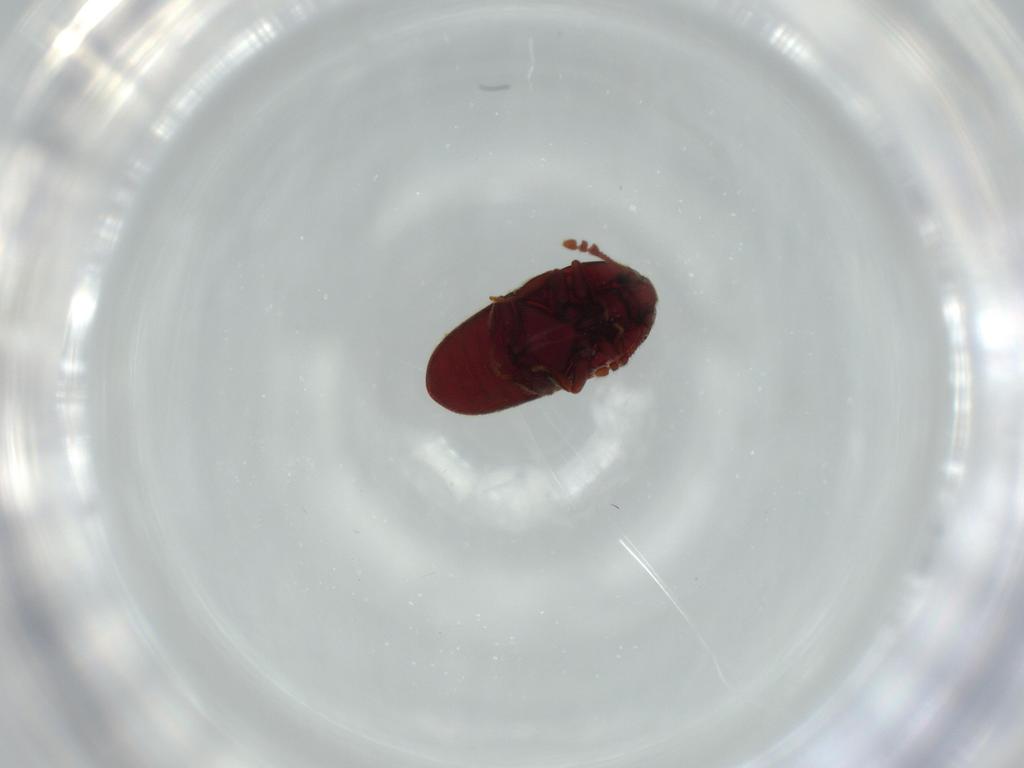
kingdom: Animalia
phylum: Arthropoda
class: Insecta
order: Coleoptera
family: Throscidae
